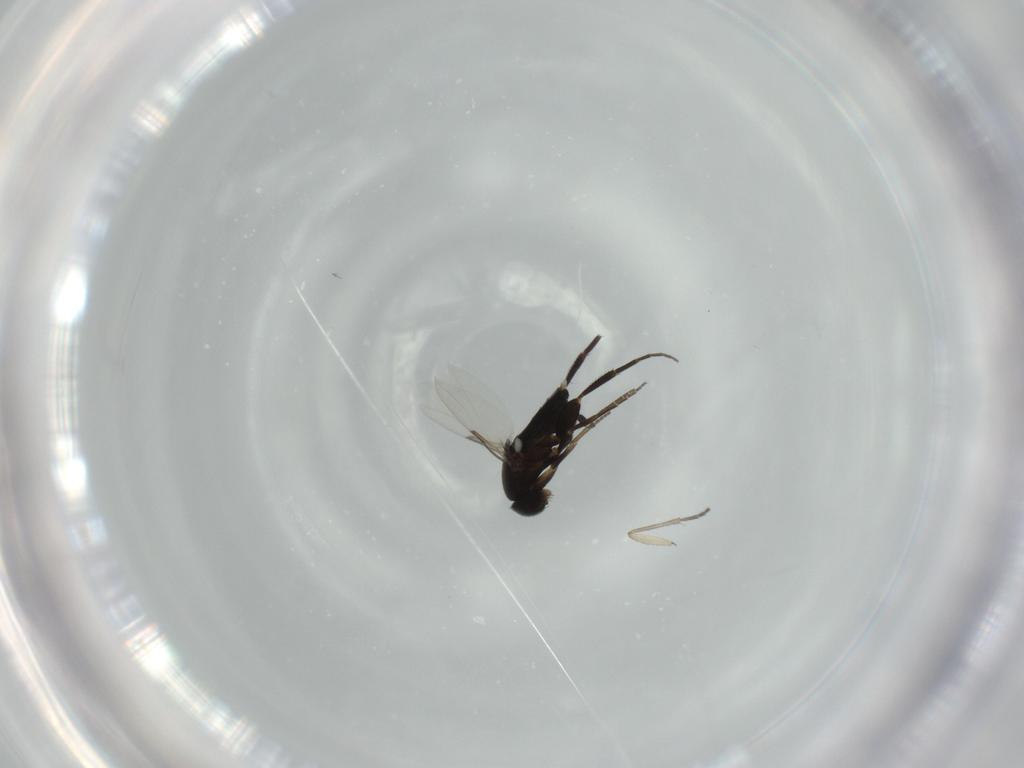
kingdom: Animalia
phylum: Arthropoda
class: Insecta
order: Diptera
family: Phoridae
